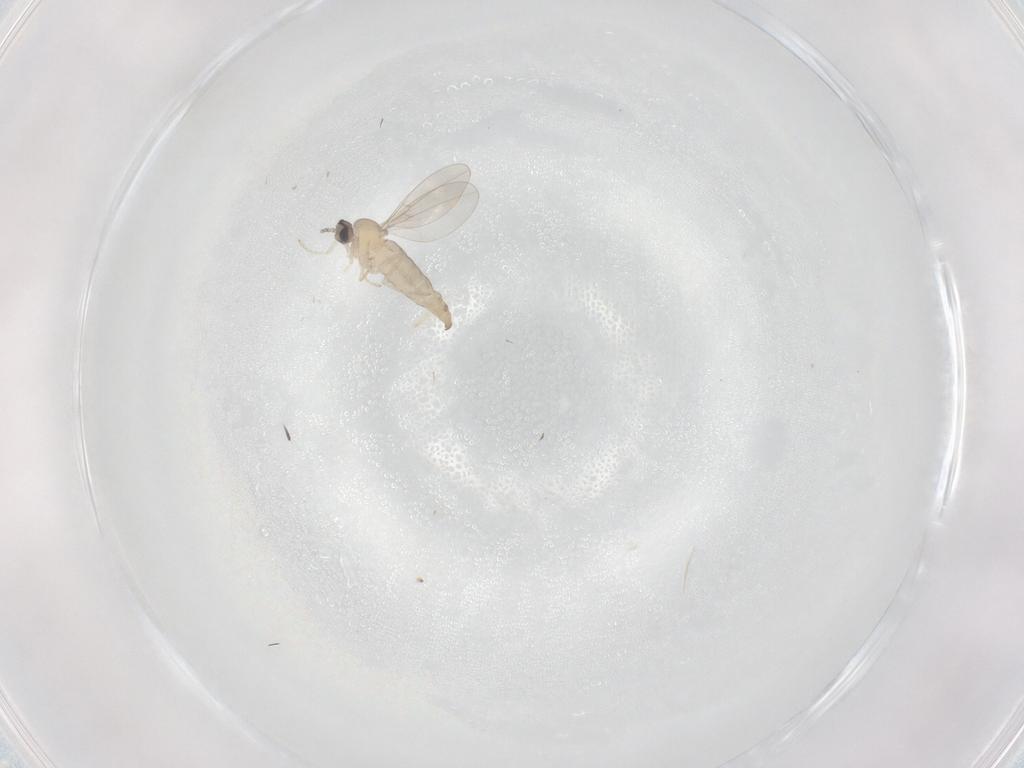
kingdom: Animalia
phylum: Arthropoda
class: Insecta
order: Diptera
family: Cecidomyiidae
